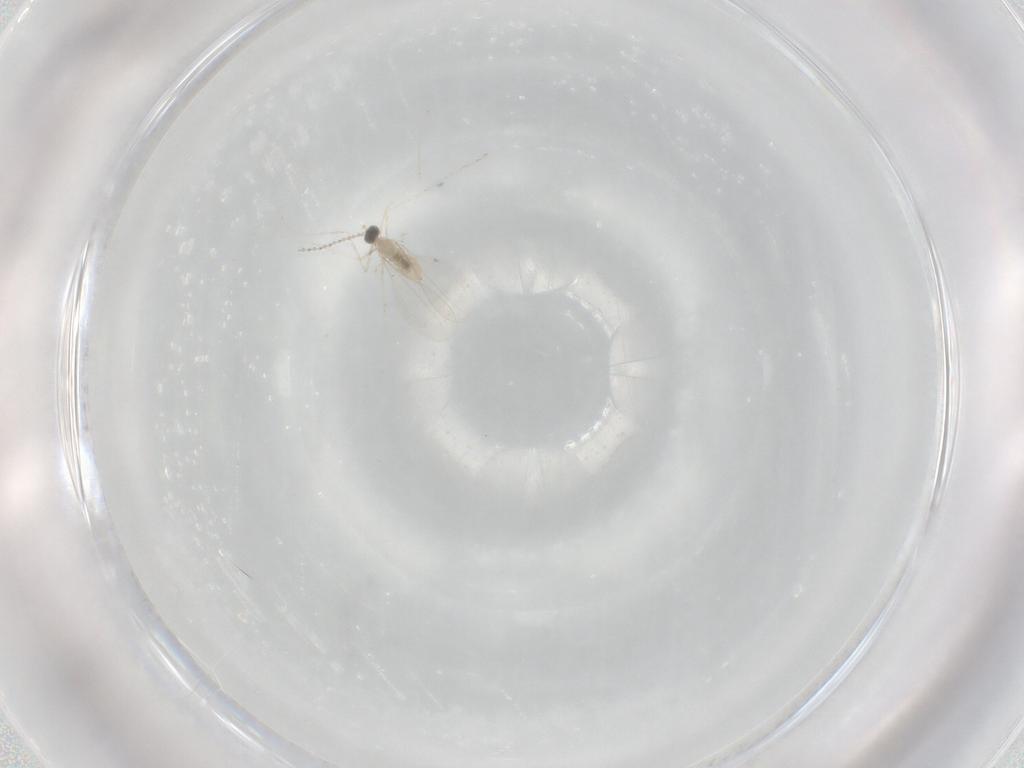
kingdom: Animalia
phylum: Arthropoda
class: Insecta
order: Diptera
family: Cecidomyiidae
